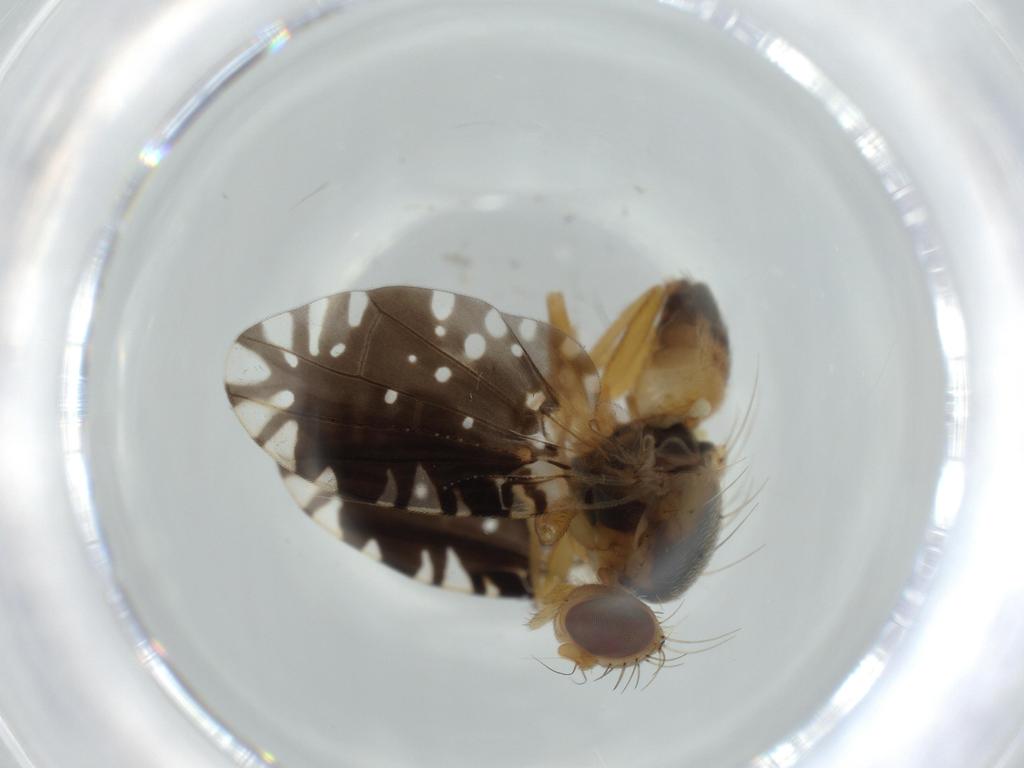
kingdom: Animalia
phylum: Arthropoda
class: Insecta
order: Diptera
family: Tephritidae
